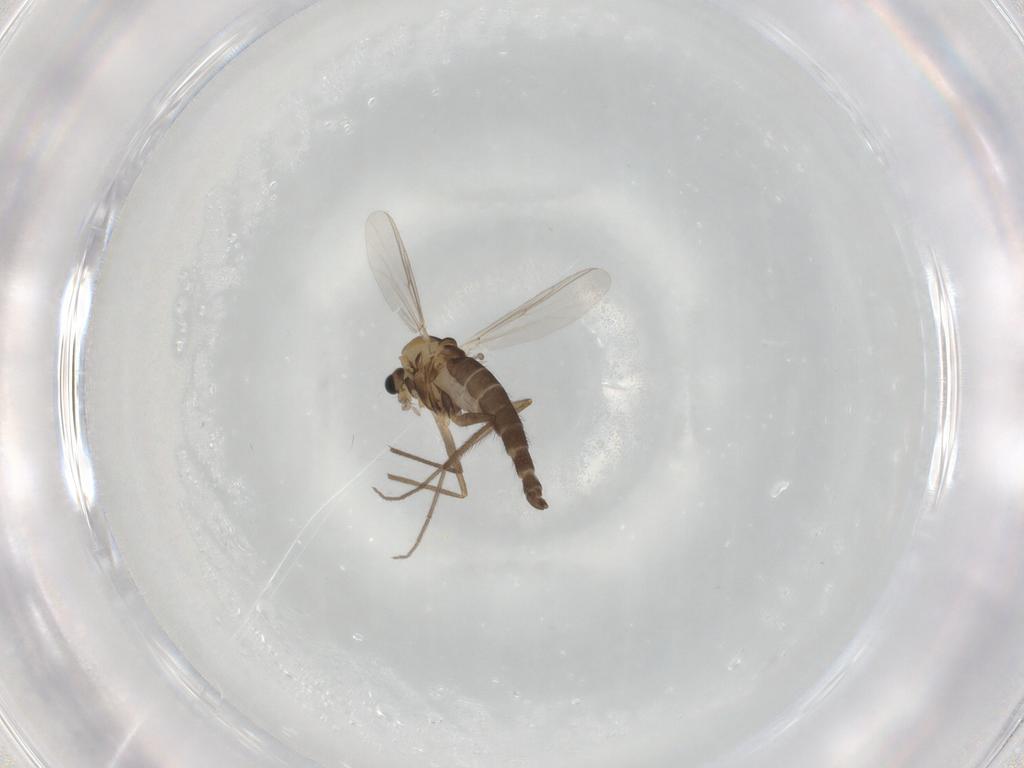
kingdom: Animalia
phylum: Arthropoda
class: Insecta
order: Diptera
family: Chironomidae
